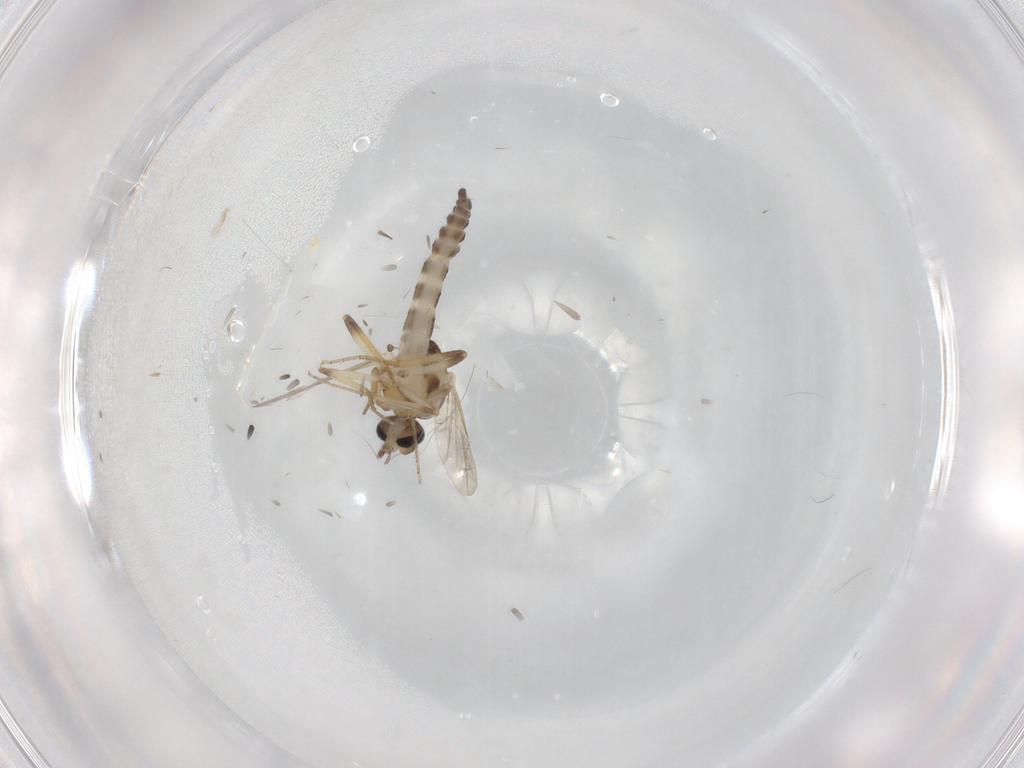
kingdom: Animalia
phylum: Arthropoda
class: Insecta
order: Diptera
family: Ceratopogonidae
